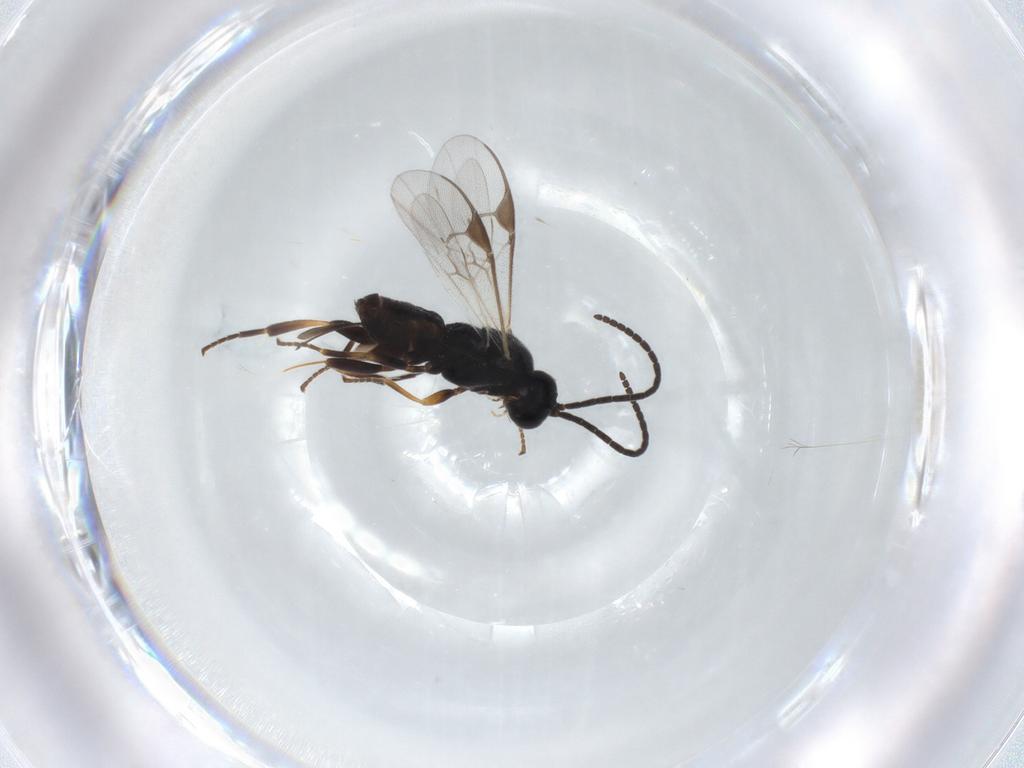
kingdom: Animalia
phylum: Arthropoda
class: Insecta
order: Hymenoptera
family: Braconidae
